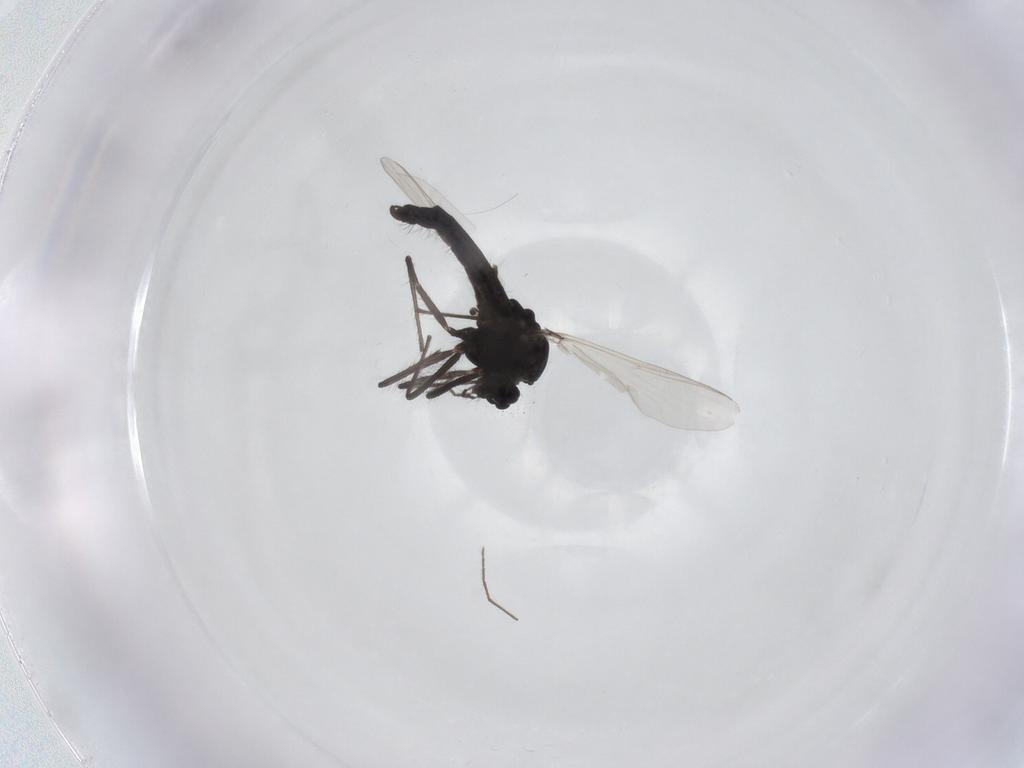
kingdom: Animalia
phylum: Arthropoda
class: Insecta
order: Diptera
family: Chironomidae
